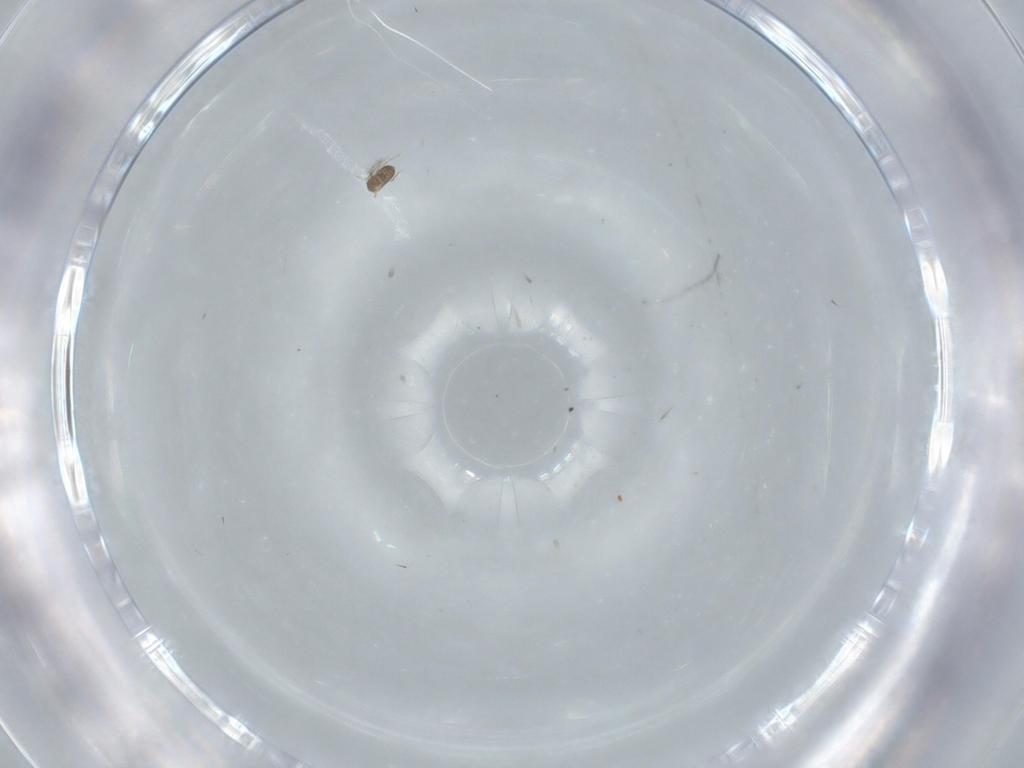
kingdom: Animalia
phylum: Arthropoda
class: Insecta
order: Hymenoptera
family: Mymaridae
